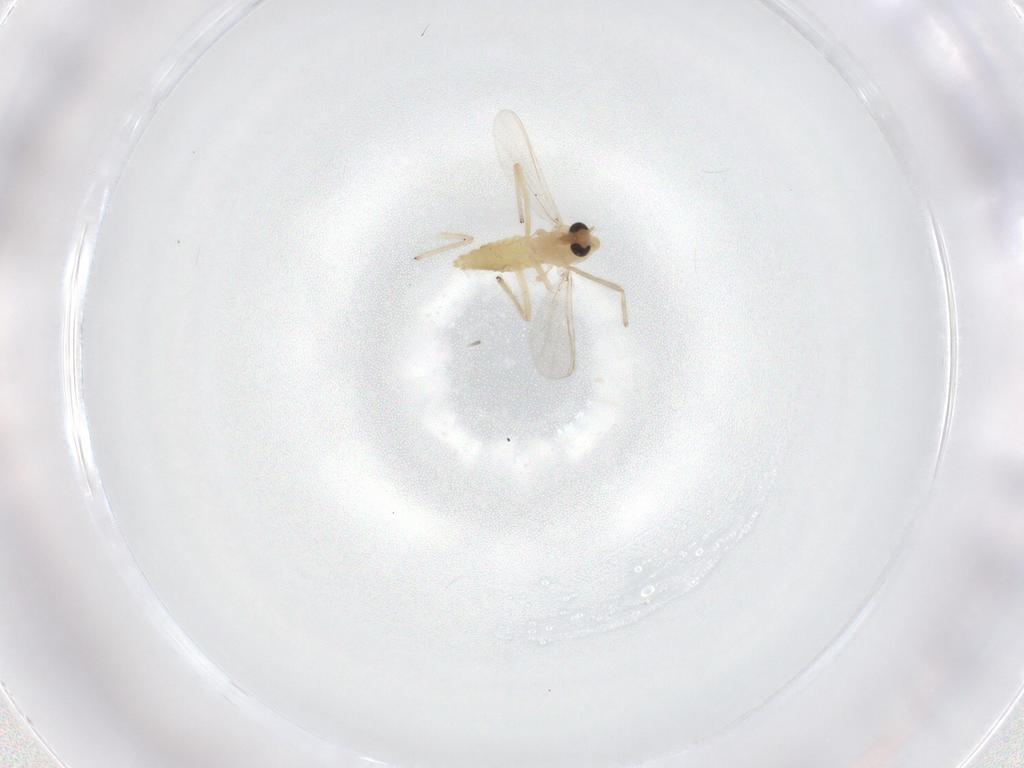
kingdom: Animalia
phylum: Arthropoda
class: Insecta
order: Diptera
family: Chironomidae
